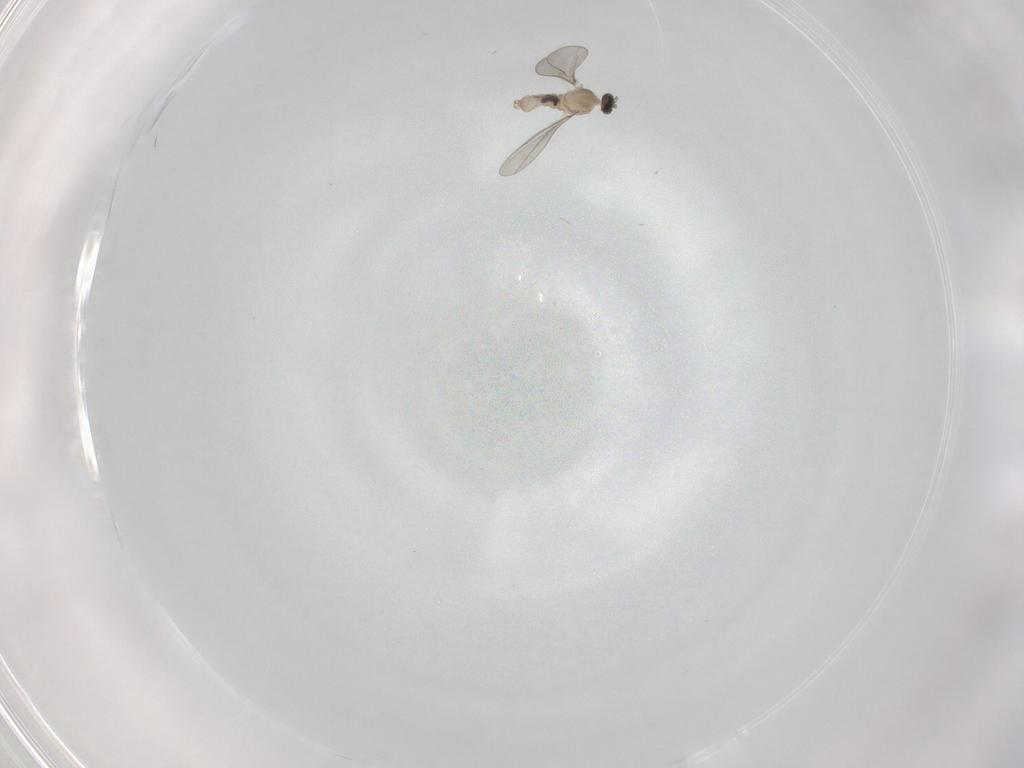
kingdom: Animalia
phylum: Arthropoda
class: Insecta
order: Diptera
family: Cecidomyiidae
